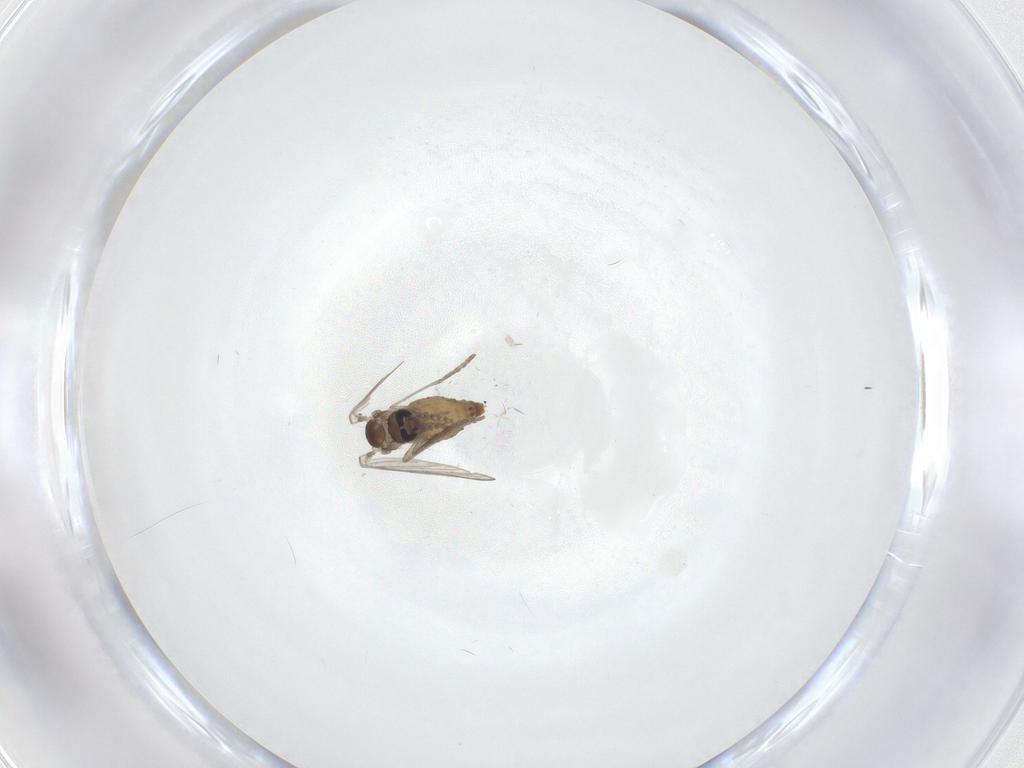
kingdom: Animalia
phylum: Arthropoda
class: Insecta
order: Diptera
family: Psychodidae
